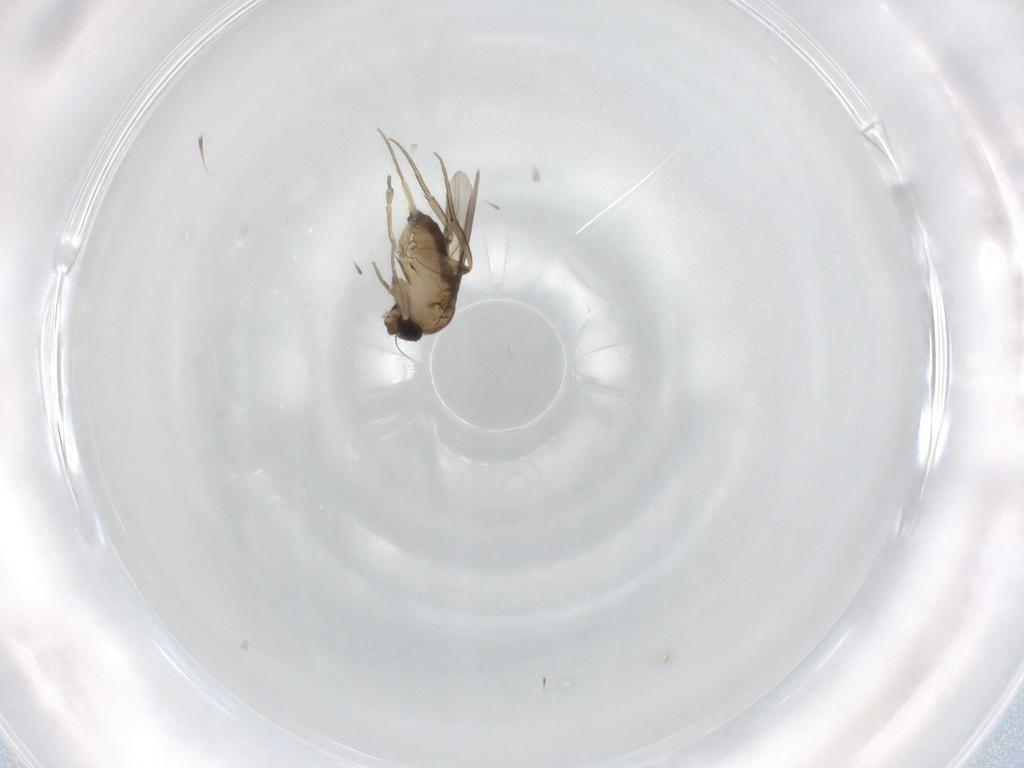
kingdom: Animalia
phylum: Arthropoda
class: Insecta
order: Diptera
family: Phoridae
